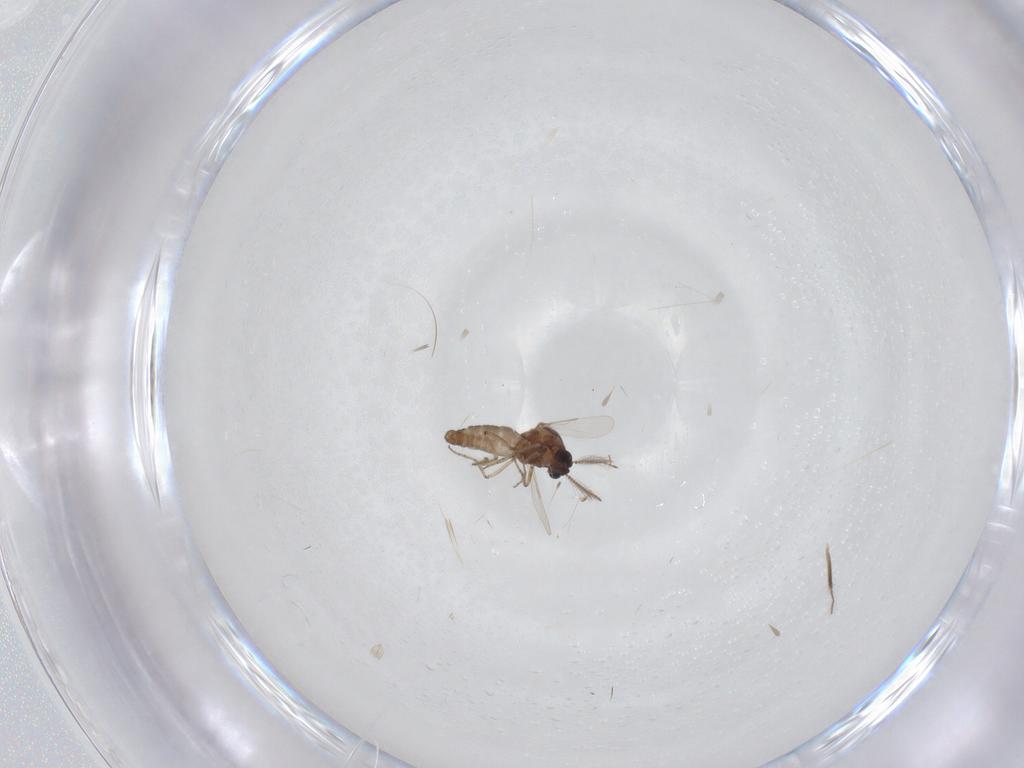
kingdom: Animalia
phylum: Arthropoda
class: Insecta
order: Diptera
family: Ceratopogonidae
